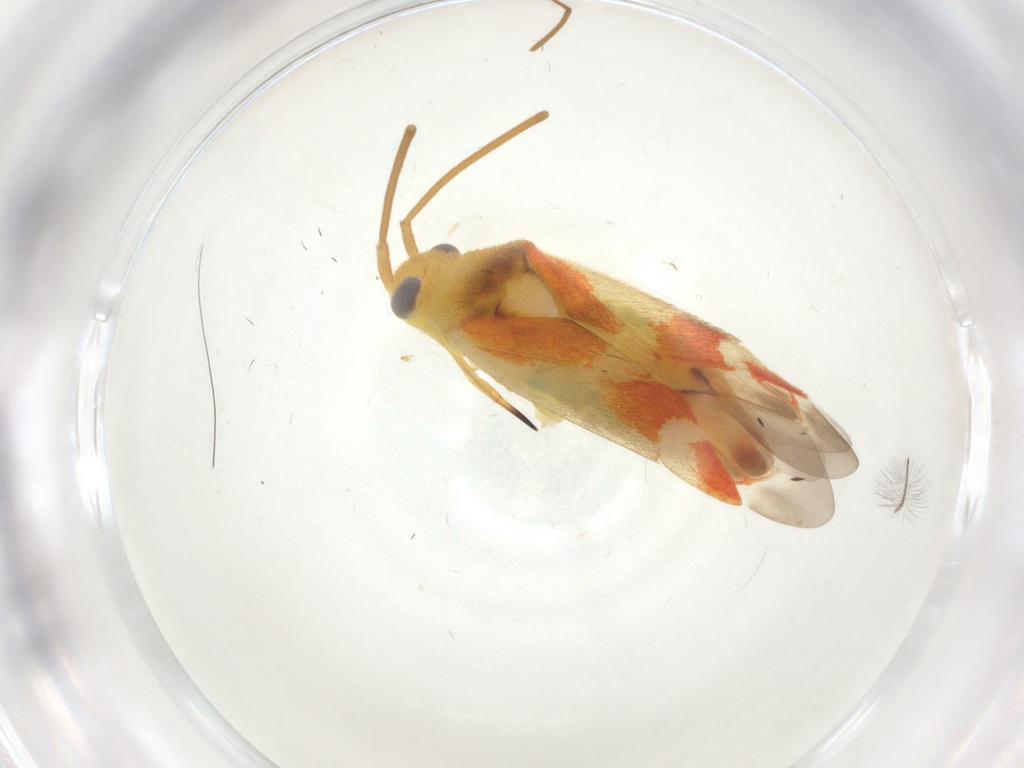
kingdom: Animalia
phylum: Arthropoda
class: Insecta
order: Hemiptera
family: Miridae
